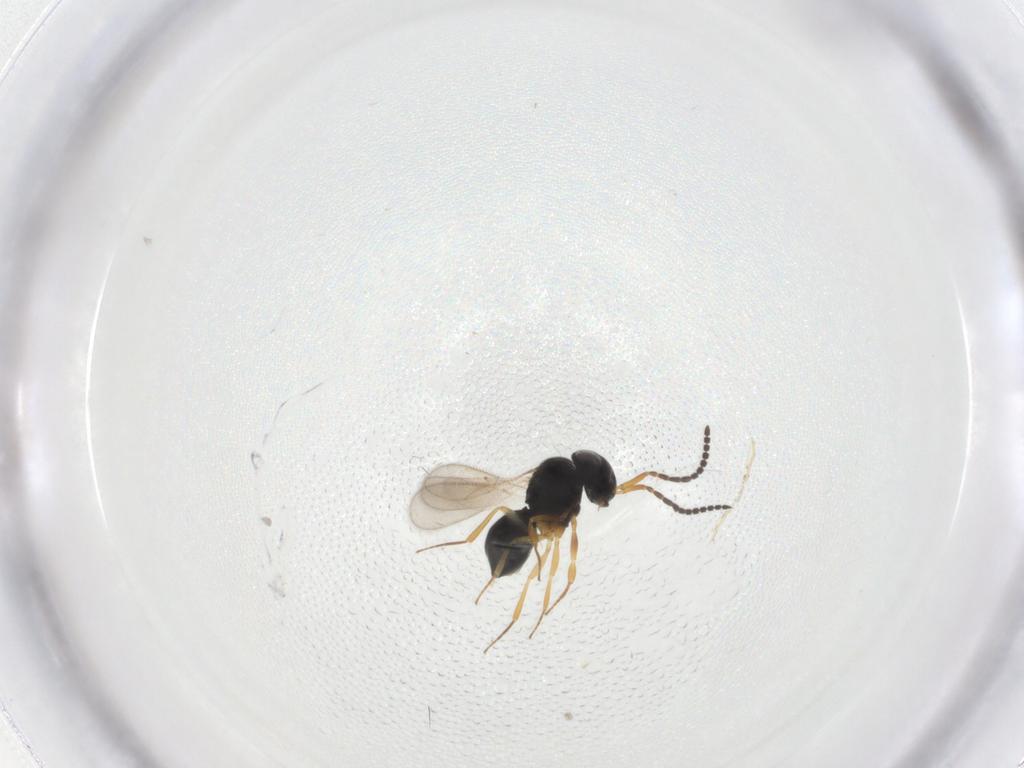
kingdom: Animalia
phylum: Arthropoda
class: Insecta
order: Hymenoptera
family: Scelionidae
